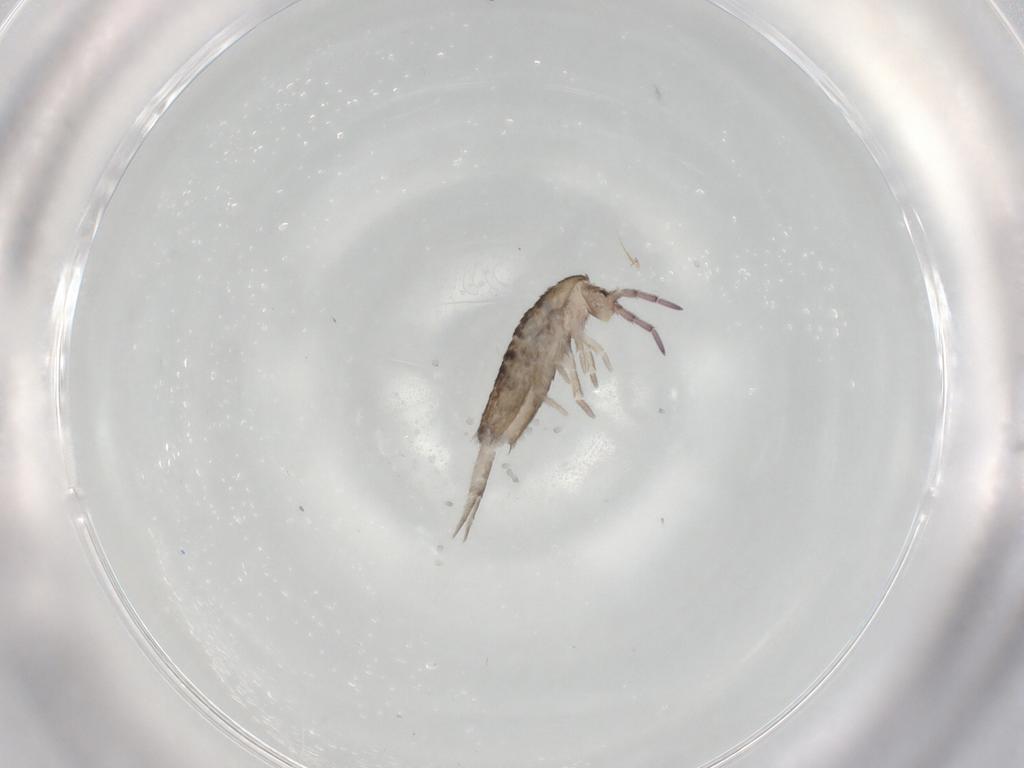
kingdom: Animalia
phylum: Arthropoda
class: Collembola
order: Entomobryomorpha
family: Entomobryidae
